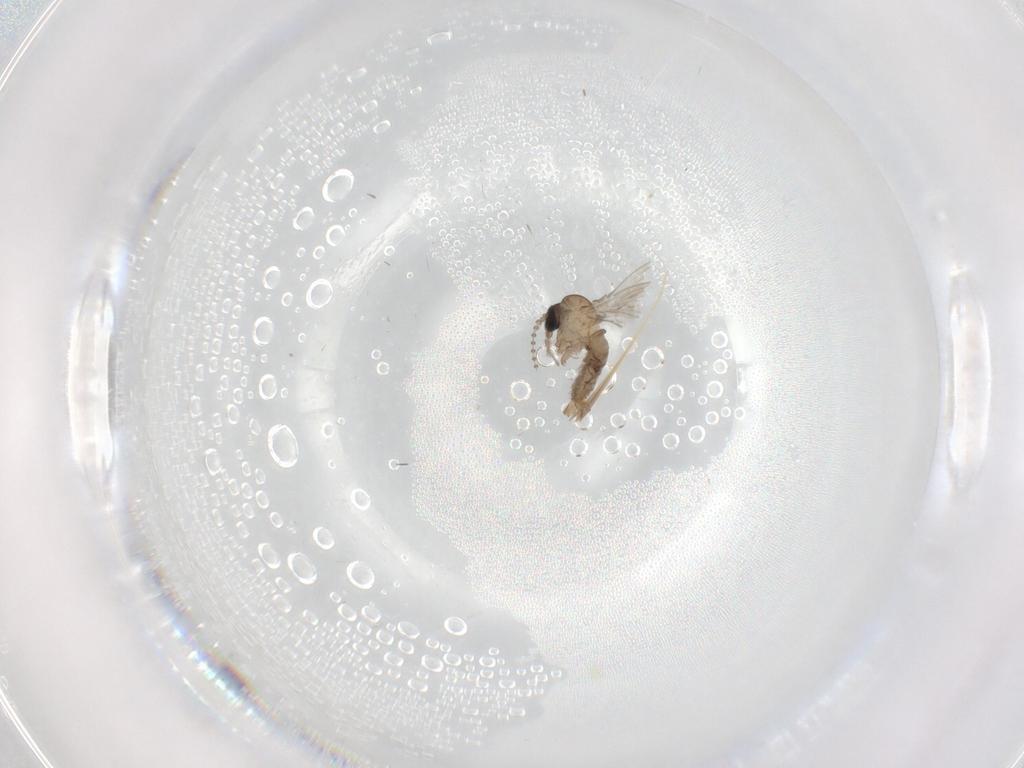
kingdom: Animalia
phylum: Arthropoda
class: Insecta
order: Diptera
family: Psychodidae
